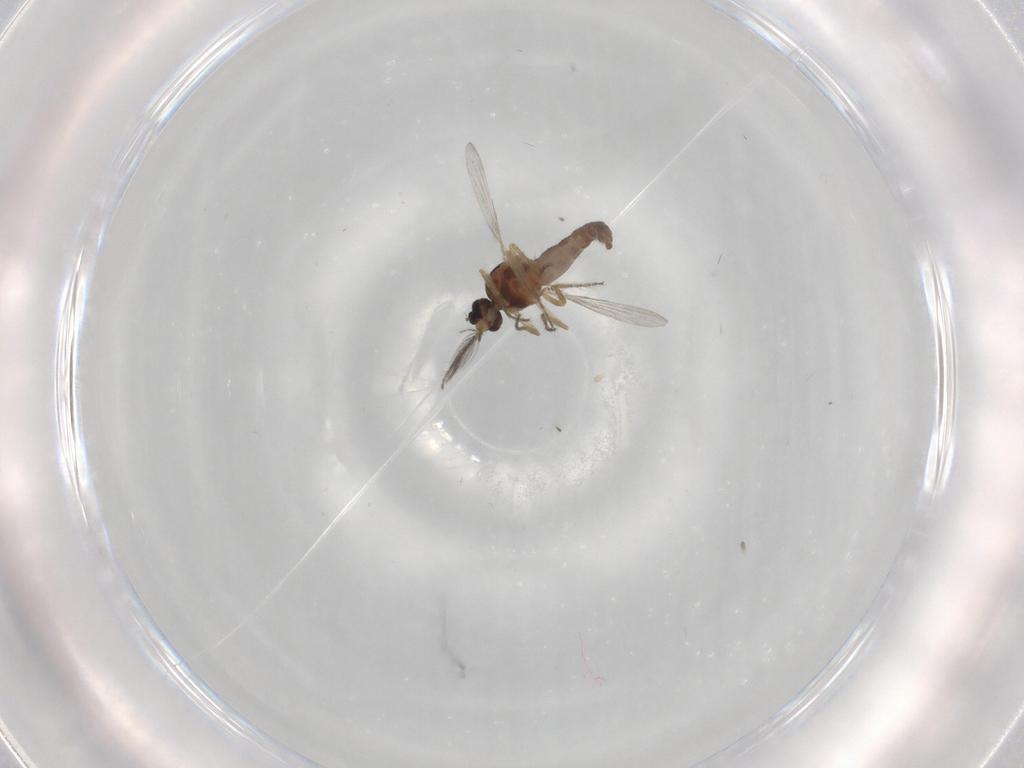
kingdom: Animalia
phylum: Arthropoda
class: Insecta
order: Diptera
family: Ceratopogonidae
